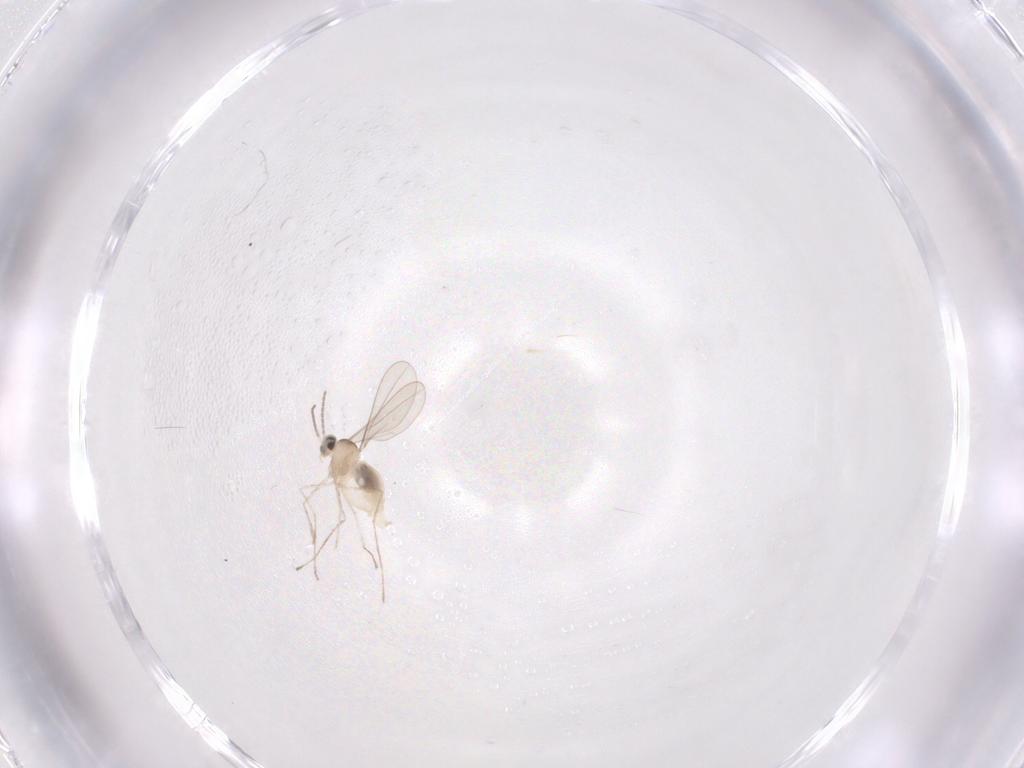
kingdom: Animalia
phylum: Arthropoda
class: Insecta
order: Diptera
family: Cecidomyiidae
